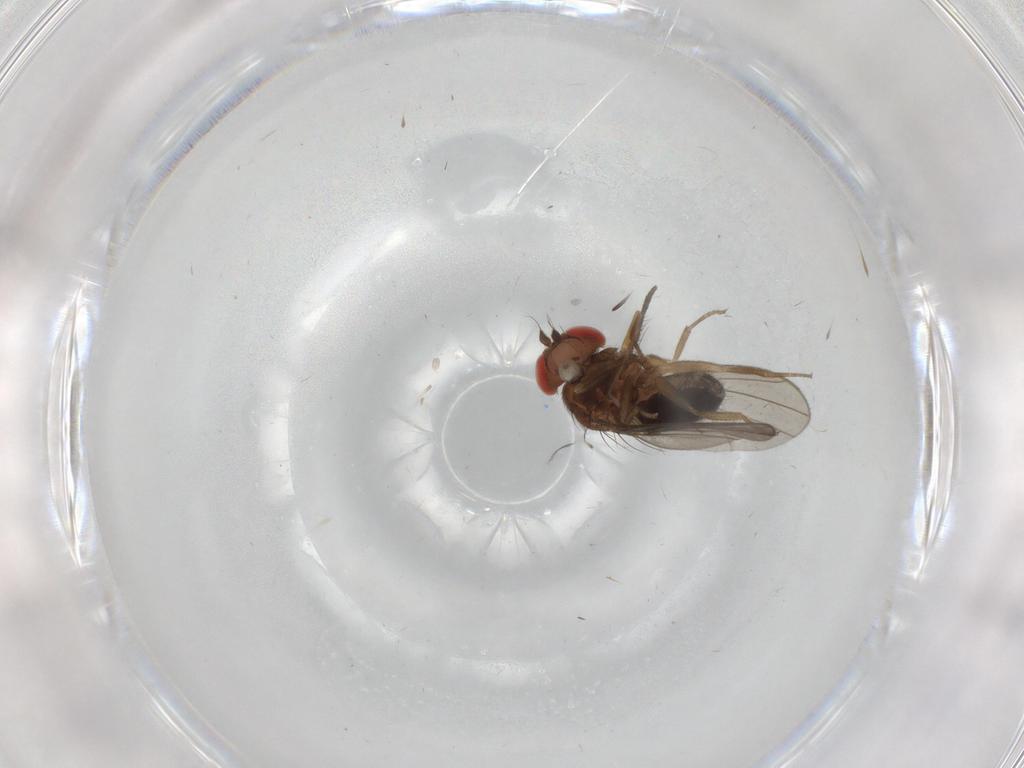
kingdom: Animalia
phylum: Arthropoda
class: Insecta
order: Diptera
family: Drosophilidae
